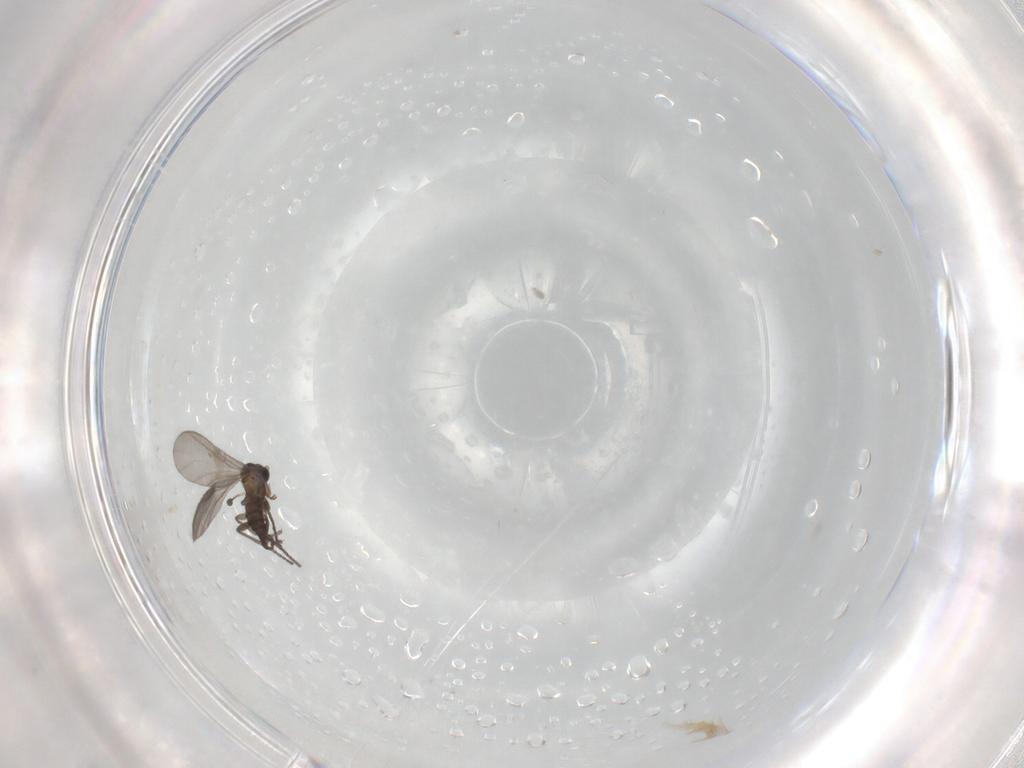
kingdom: Animalia
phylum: Arthropoda
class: Insecta
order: Diptera
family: Sciaridae
